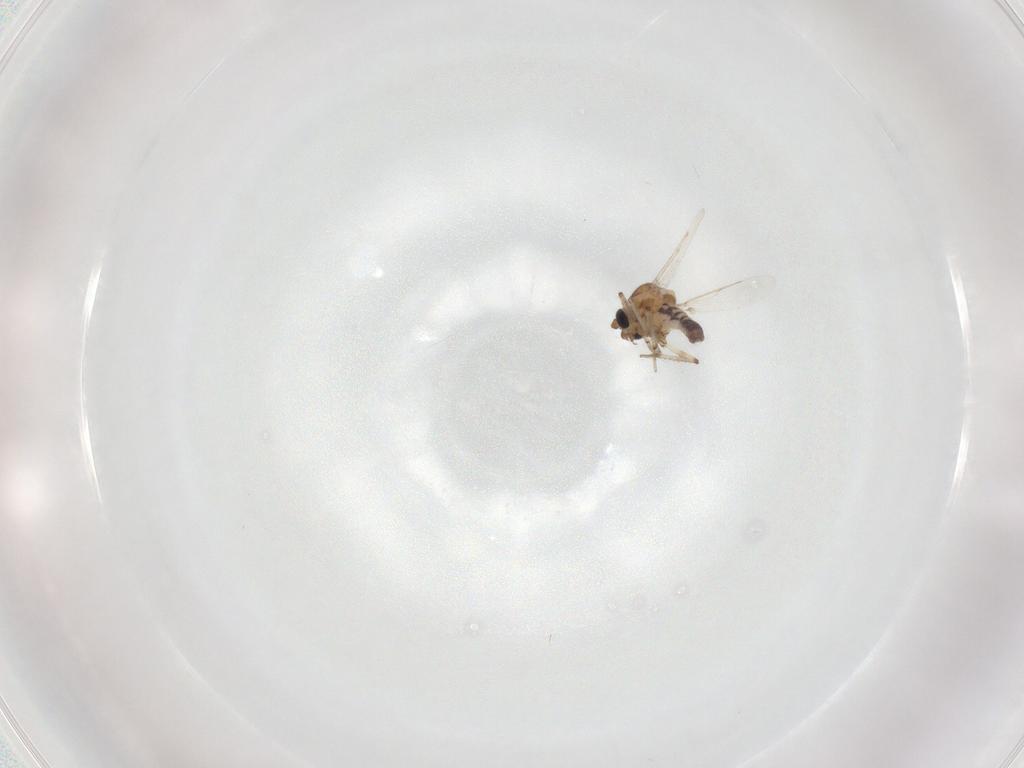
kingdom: Animalia
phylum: Arthropoda
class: Insecta
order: Diptera
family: Ceratopogonidae
